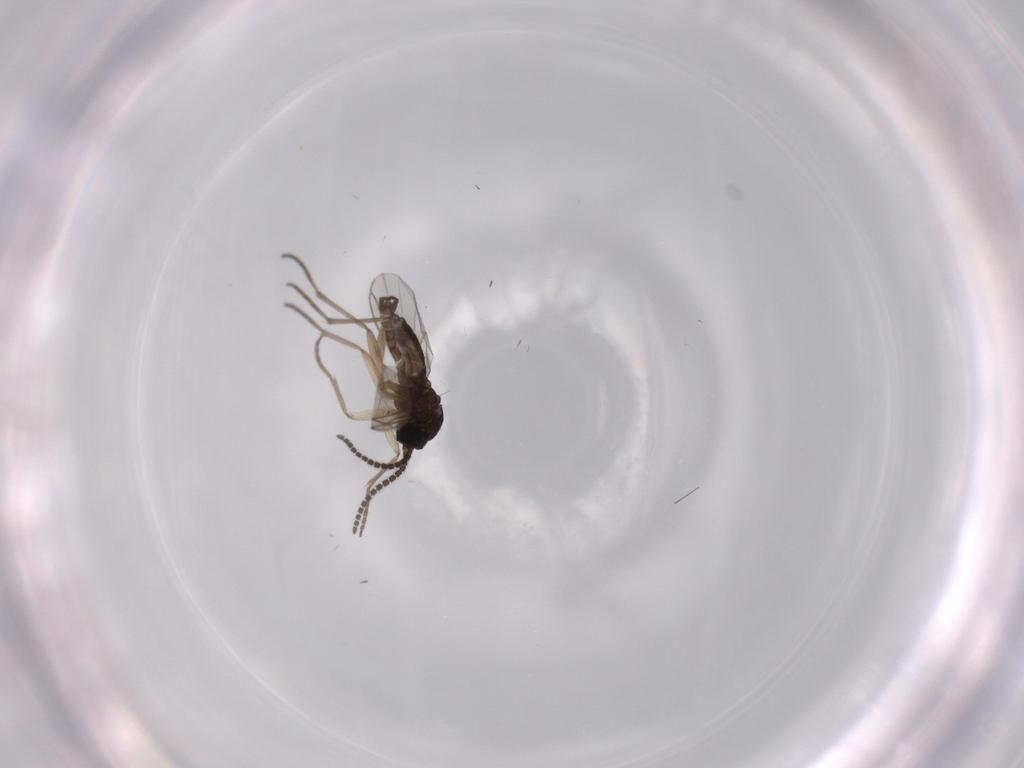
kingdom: Animalia
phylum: Arthropoda
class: Insecta
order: Diptera
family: Sciaridae
